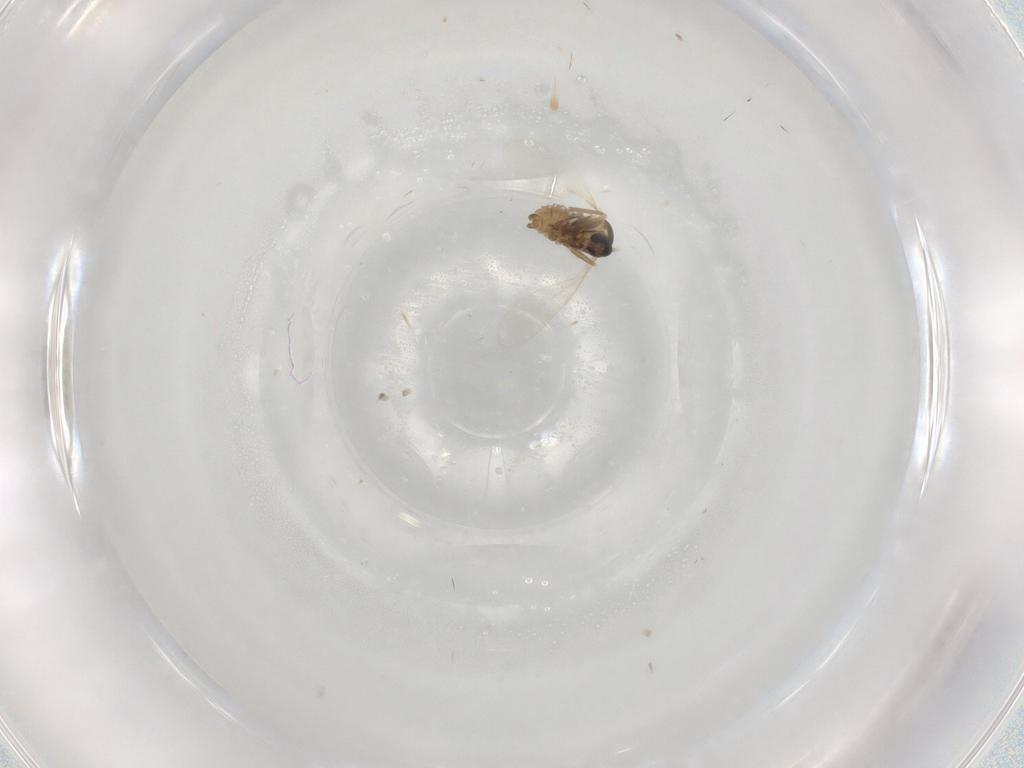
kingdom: Animalia
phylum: Arthropoda
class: Insecta
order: Diptera
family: Cecidomyiidae
